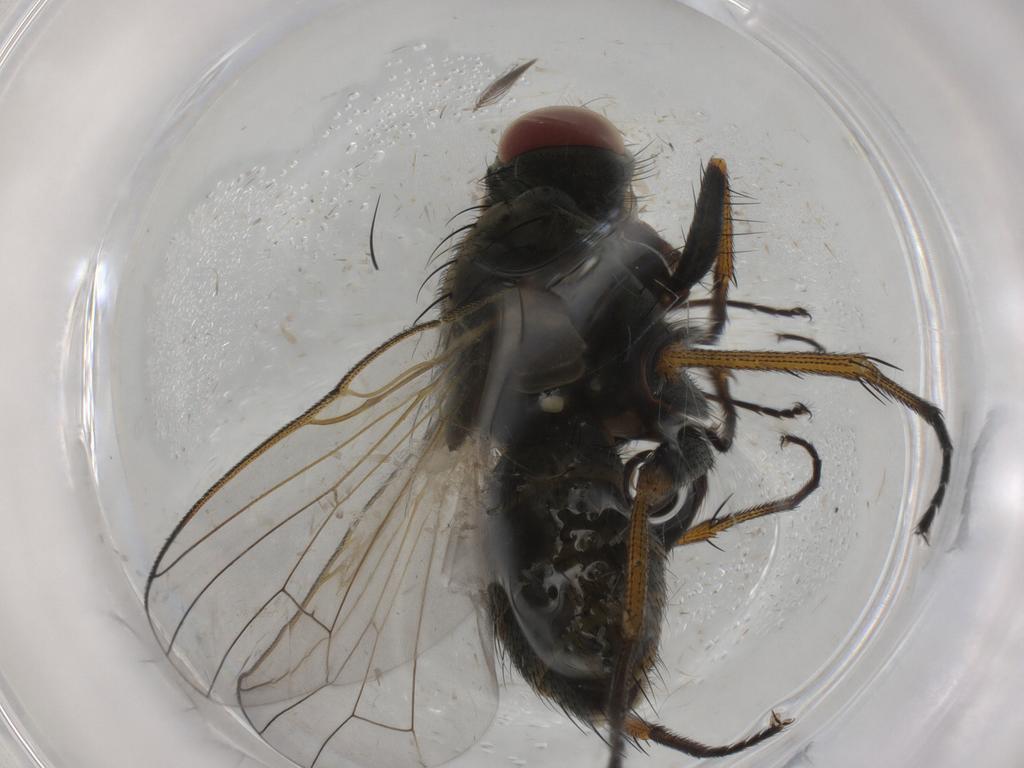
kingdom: Animalia
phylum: Arthropoda
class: Insecta
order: Diptera
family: Muscidae
